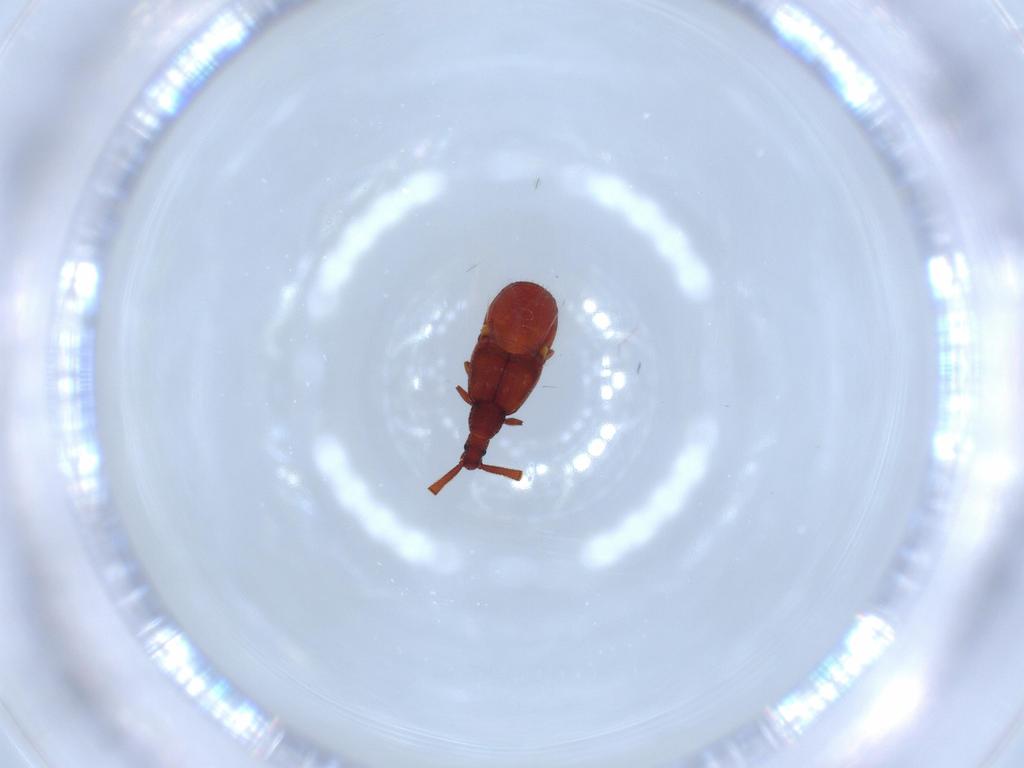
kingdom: Animalia
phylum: Arthropoda
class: Insecta
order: Coleoptera
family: Staphylinidae
